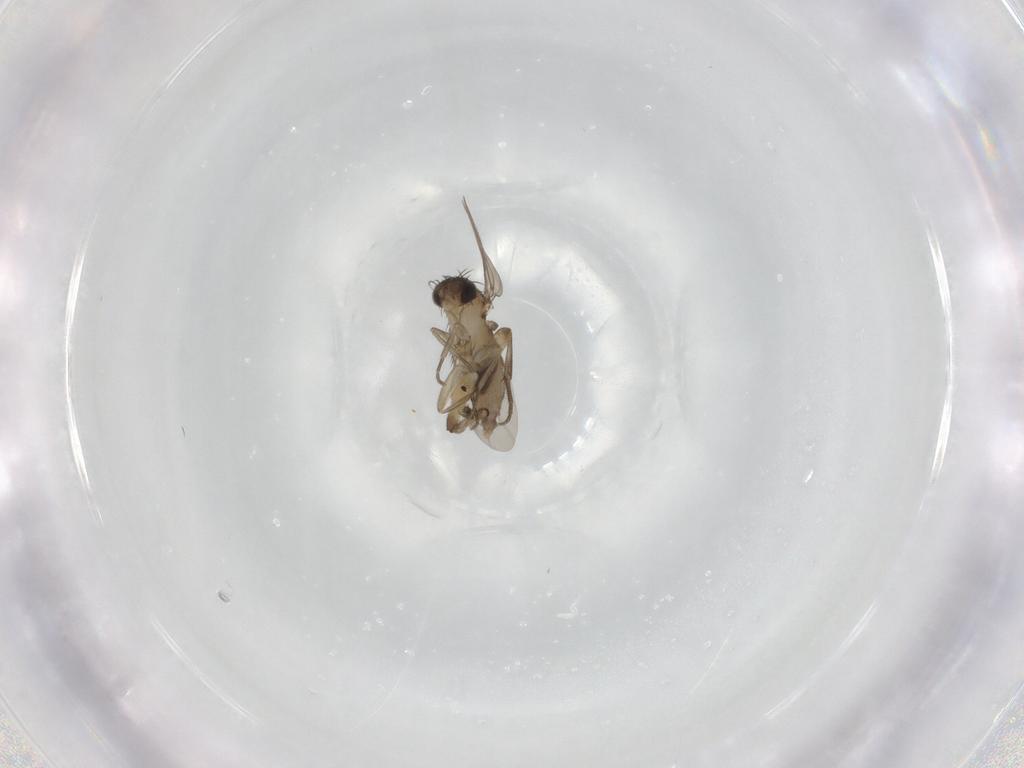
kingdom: Animalia
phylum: Arthropoda
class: Insecta
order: Diptera
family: Phoridae
